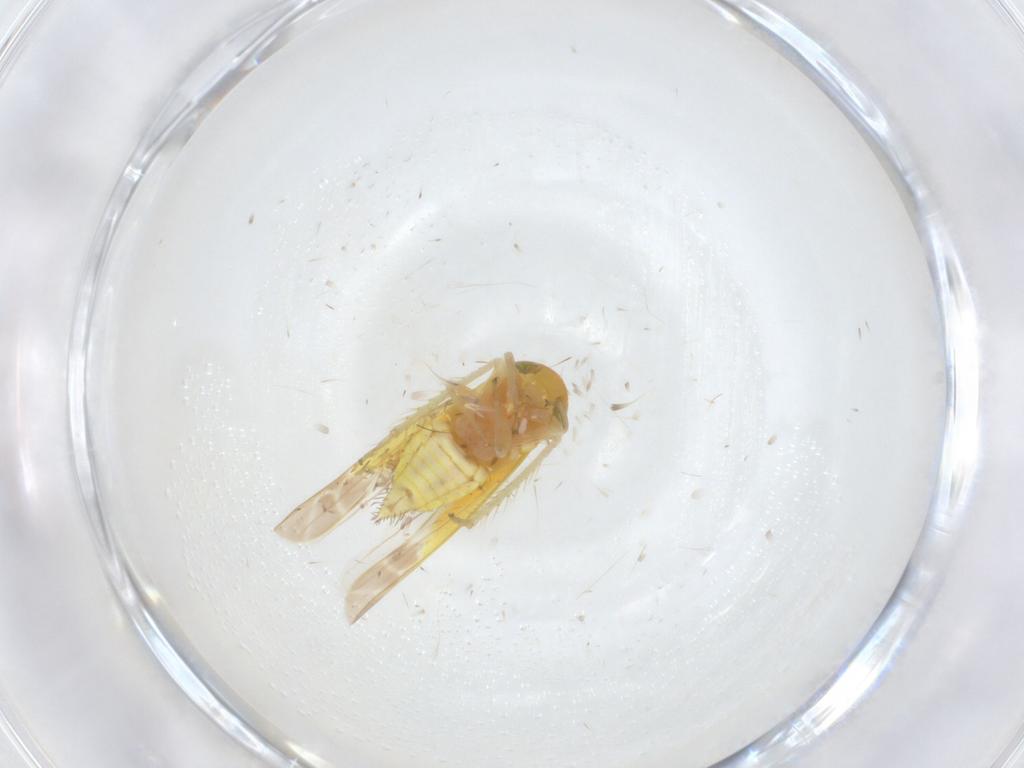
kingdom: Animalia
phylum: Arthropoda
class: Insecta
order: Hemiptera
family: Cicadellidae
